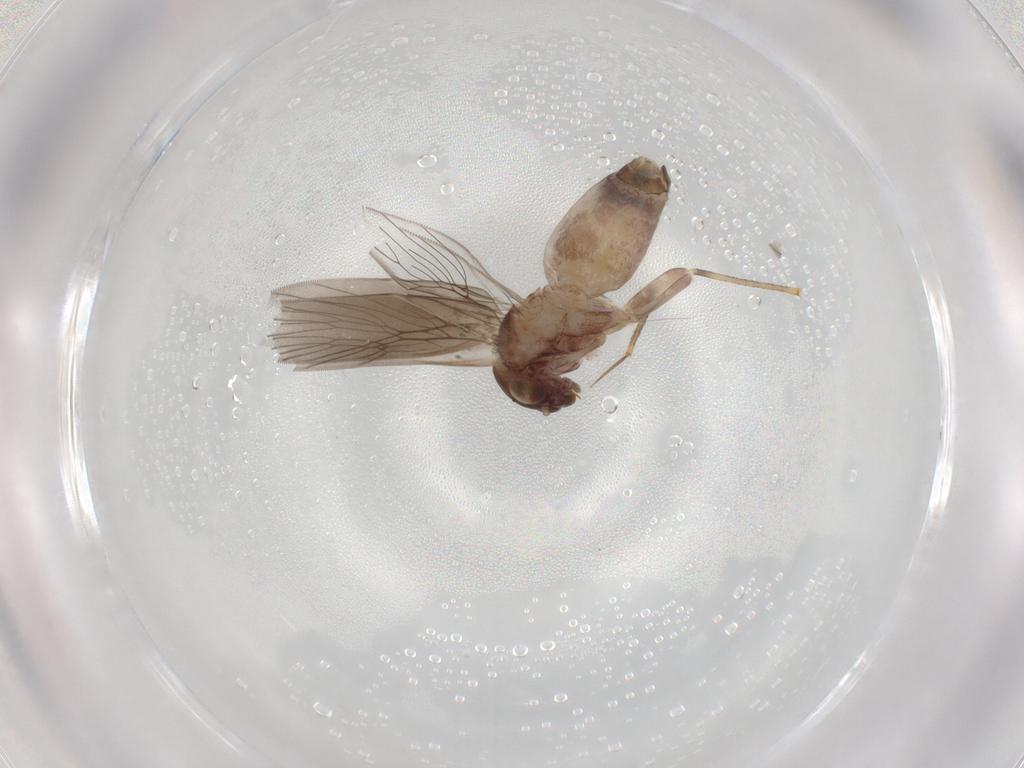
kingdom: Animalia
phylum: Arthropoda
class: Insecta
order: Psocodea
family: Lepidopsocidae
